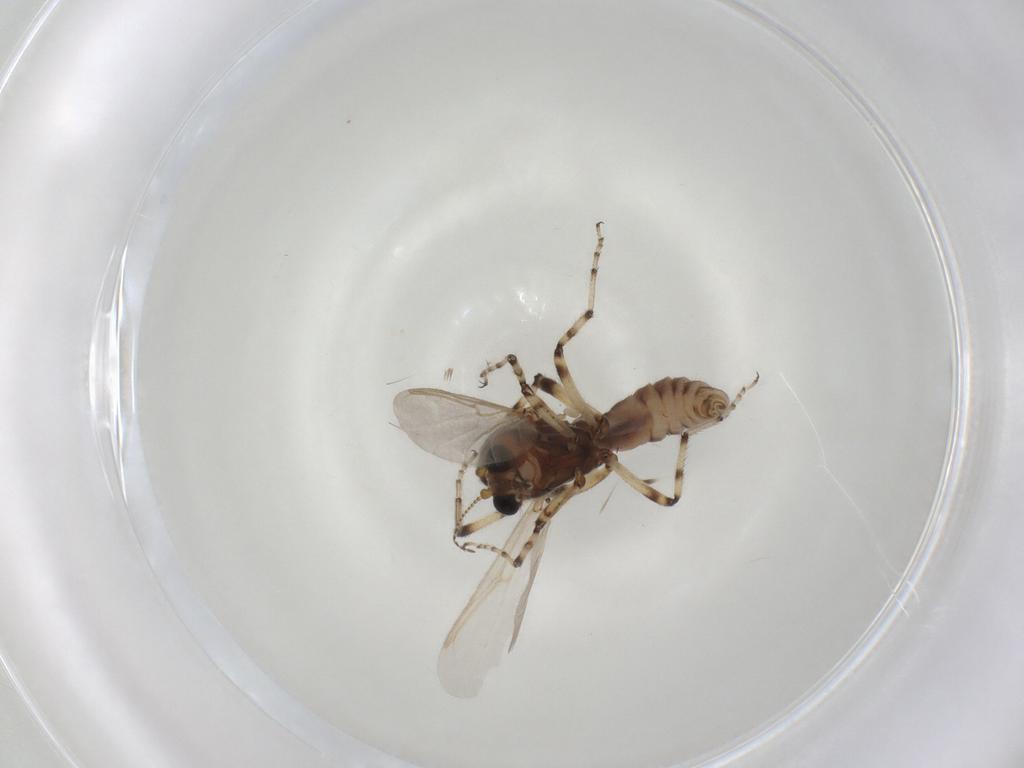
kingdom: Animalia
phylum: Arthropoda
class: Insecta
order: Diptera
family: Ceratopogonidae
